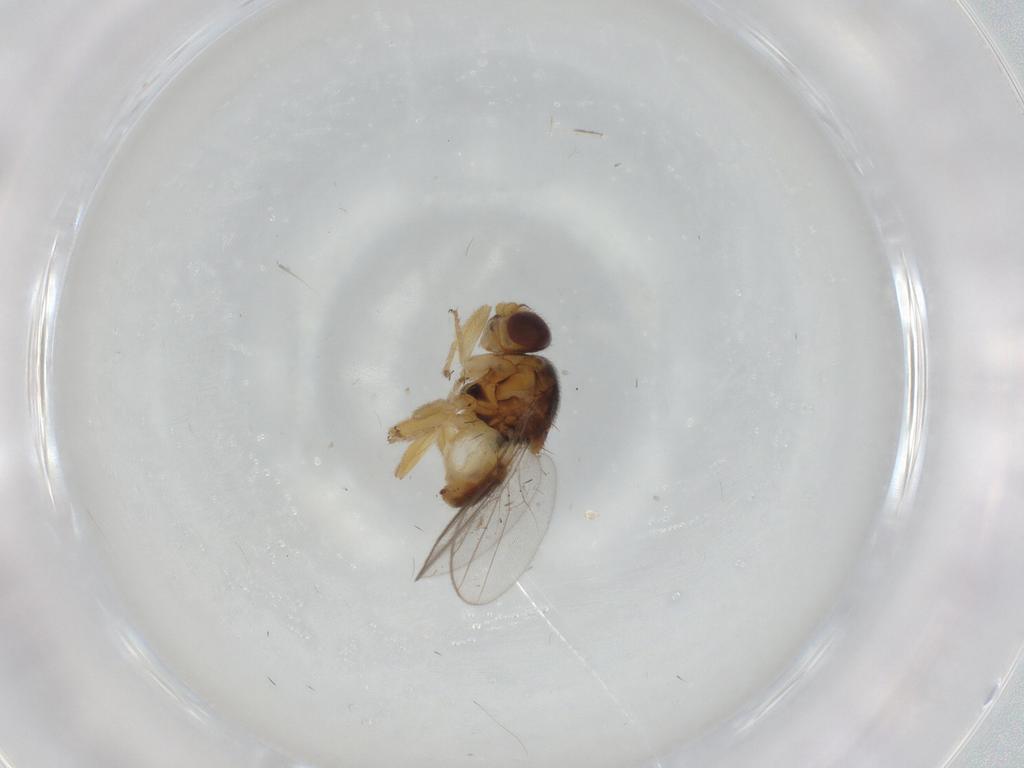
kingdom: Animalia
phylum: Arthropoda
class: Insecta
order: Diptera
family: Chloropidae
